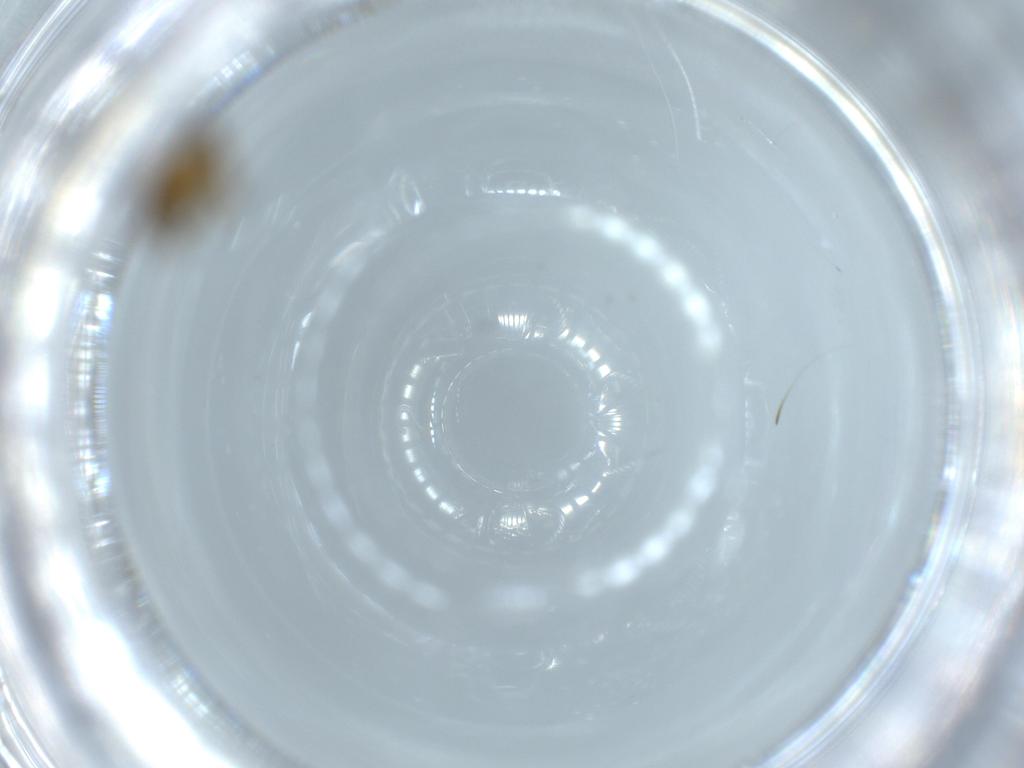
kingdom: Animalia
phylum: Arthropoda
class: Insecta
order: Diptera
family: Ceratopogonidae
